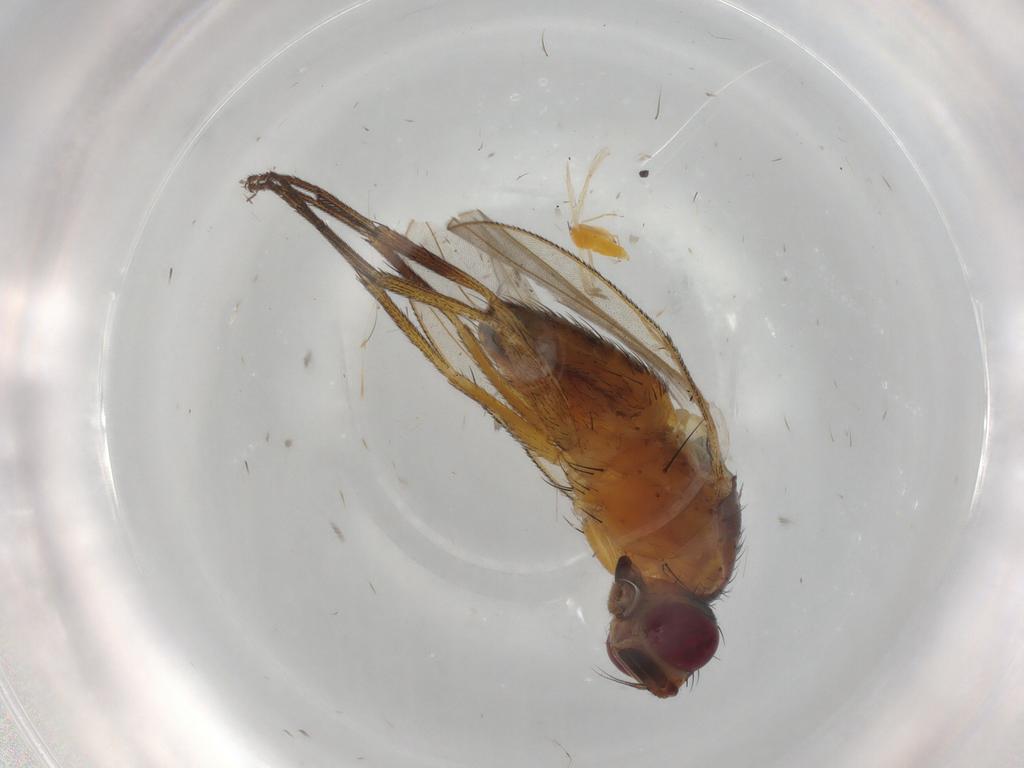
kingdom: Animalia
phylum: Arthropoda
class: Insecta
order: Diptera
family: Muscidae
